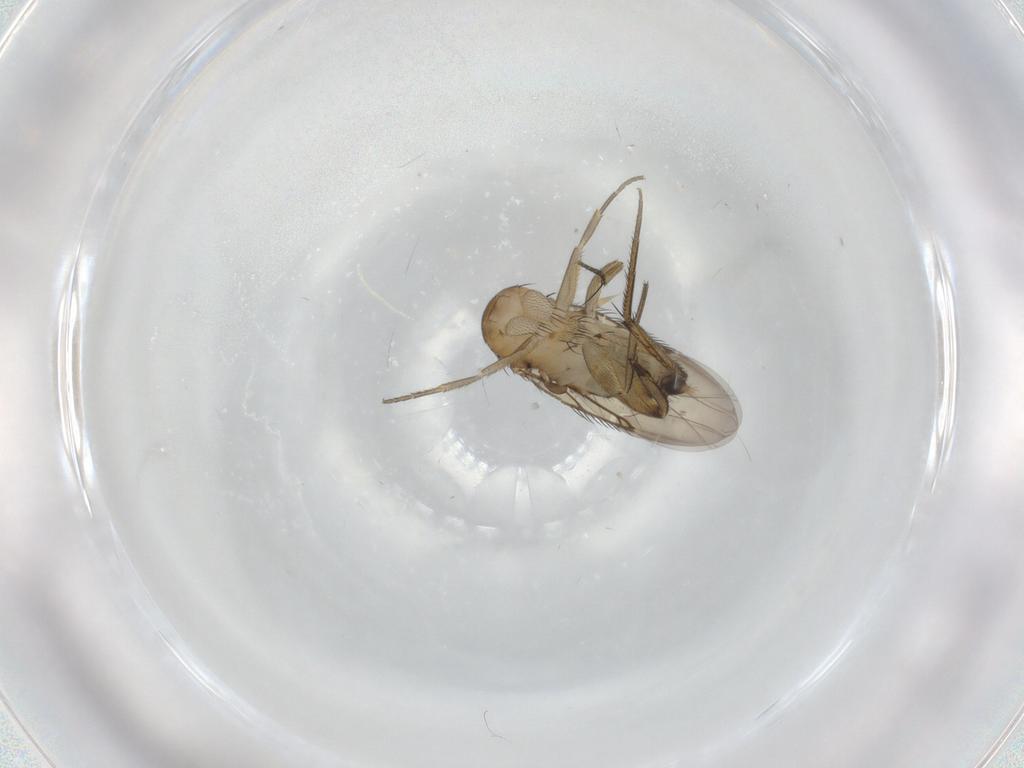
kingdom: Animalia
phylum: Arthropoda
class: Insecta
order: Diptera
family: Phoridae
